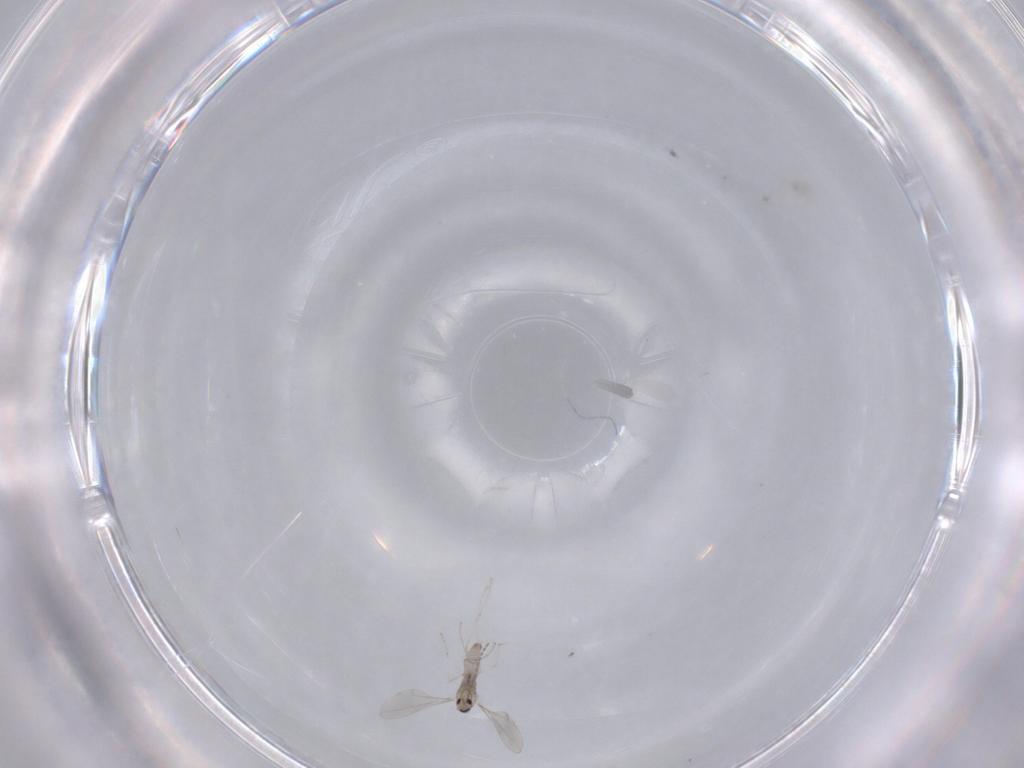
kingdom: Animalia
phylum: Arthropoda
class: Insecta
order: Diptera
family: Cecidomyiidae
